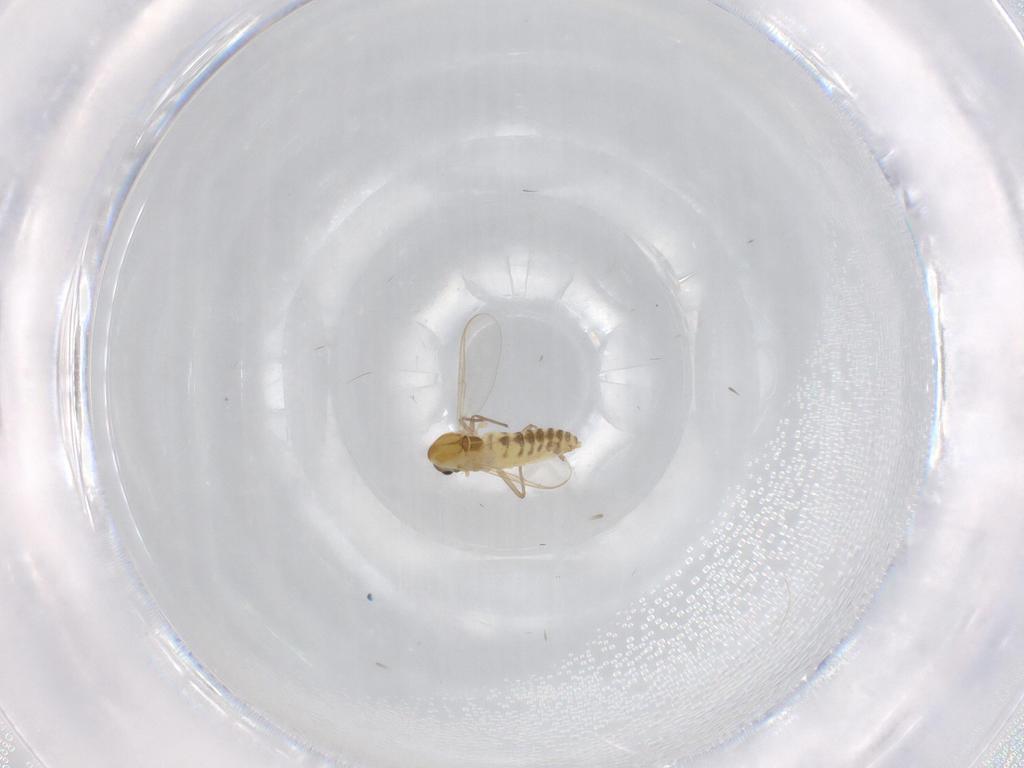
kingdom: Animalia
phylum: Arthropoda
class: Insecta
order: Diptera
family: Chironomidae
